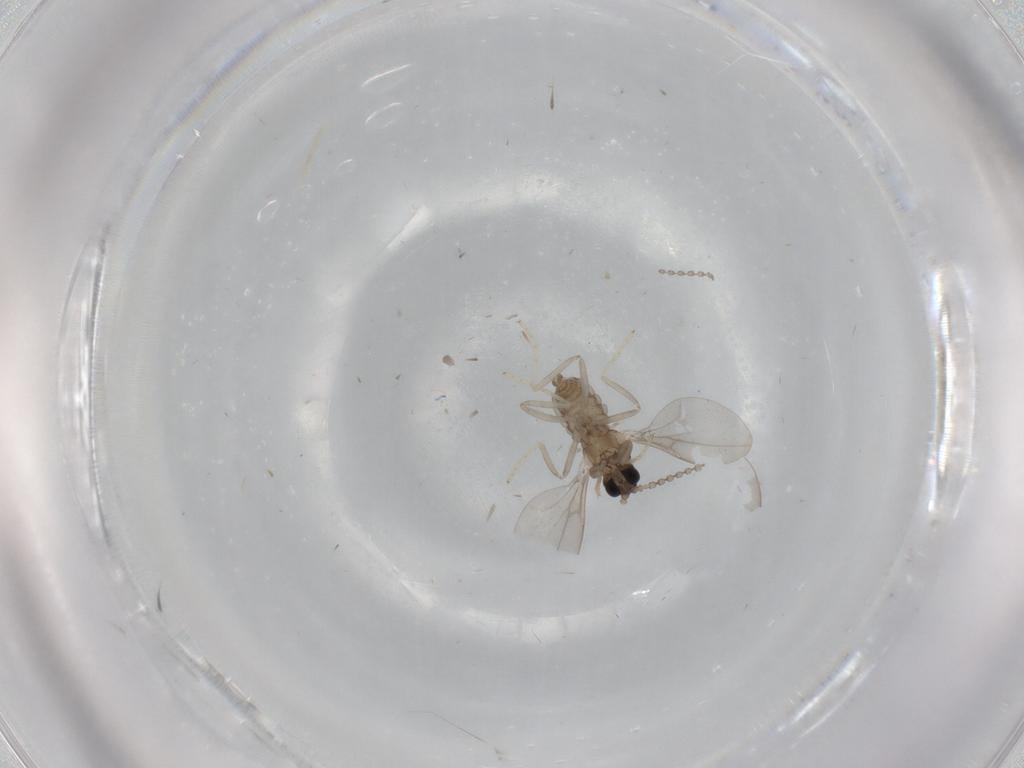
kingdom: Animalia
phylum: Arthropoda
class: Insecta
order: Diptera
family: Cecidomyiidae
